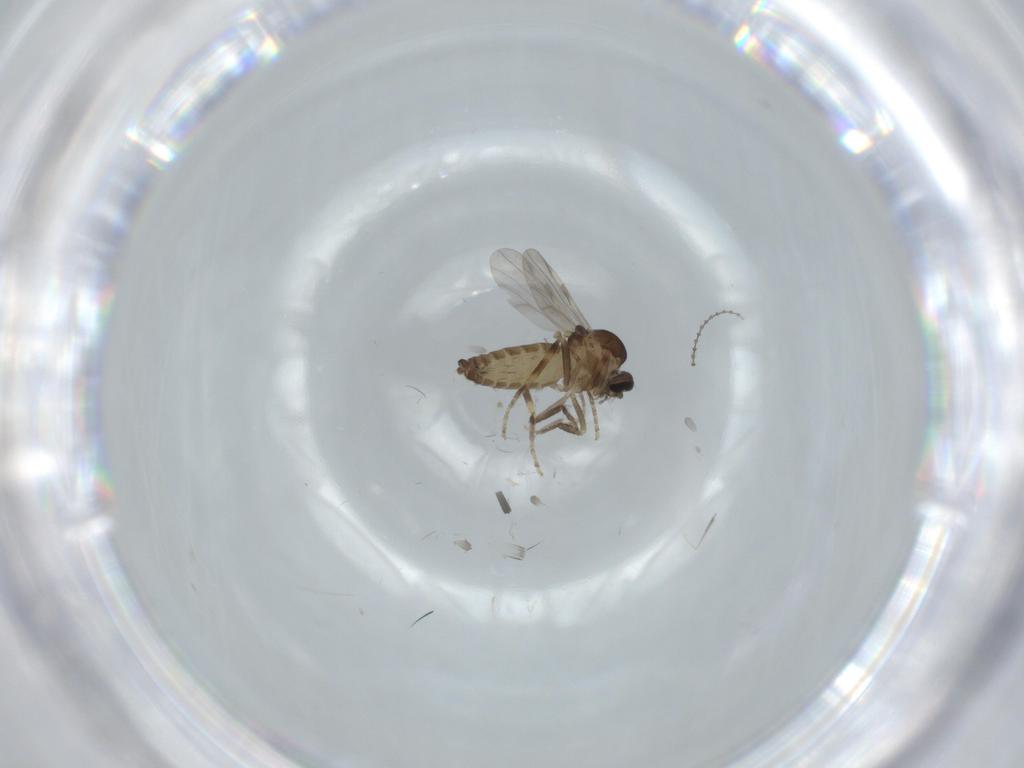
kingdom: Animalia
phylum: Arthropoda
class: Insecta
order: Diptera
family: Ceratopogonidae
